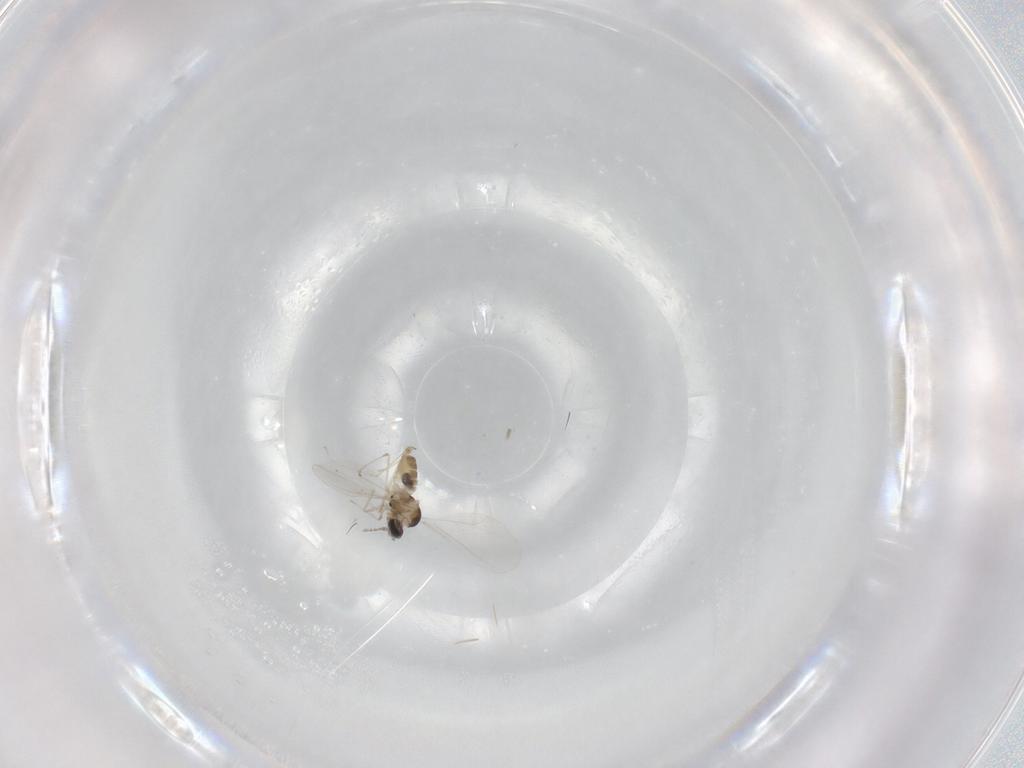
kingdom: Animalia
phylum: Arthropoda
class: Insecta
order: Diptera
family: Cecidomyiidae
